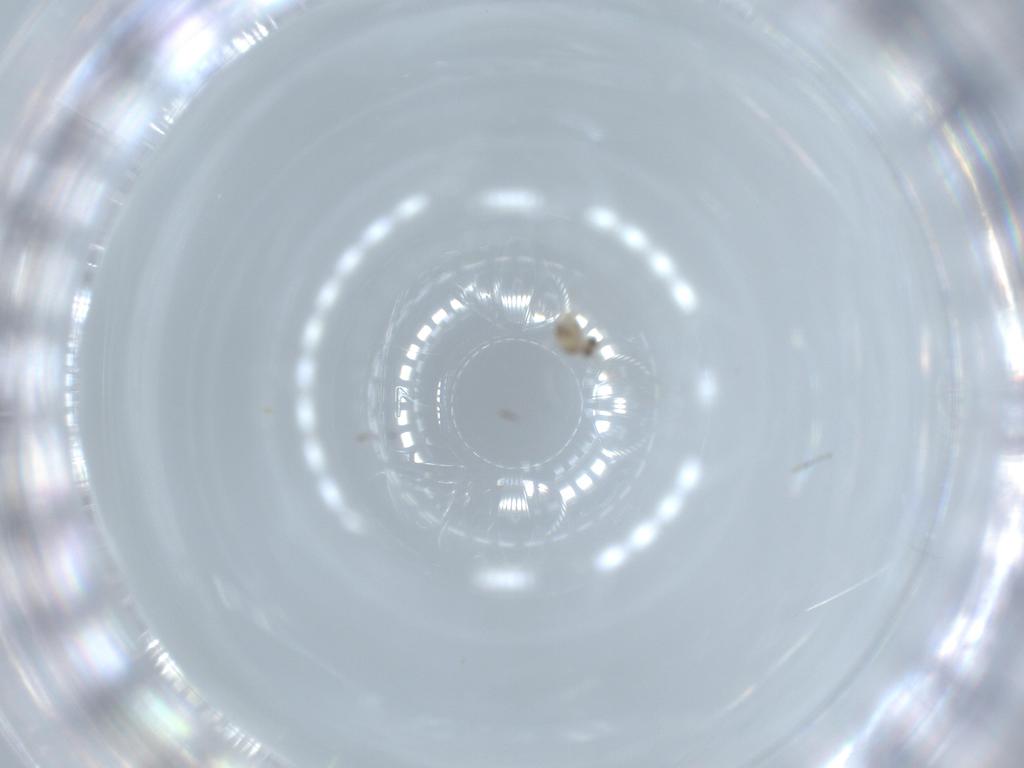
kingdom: Animalia
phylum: Arthropoda
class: Insecta
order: Diptera
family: Cecidomyiidae
